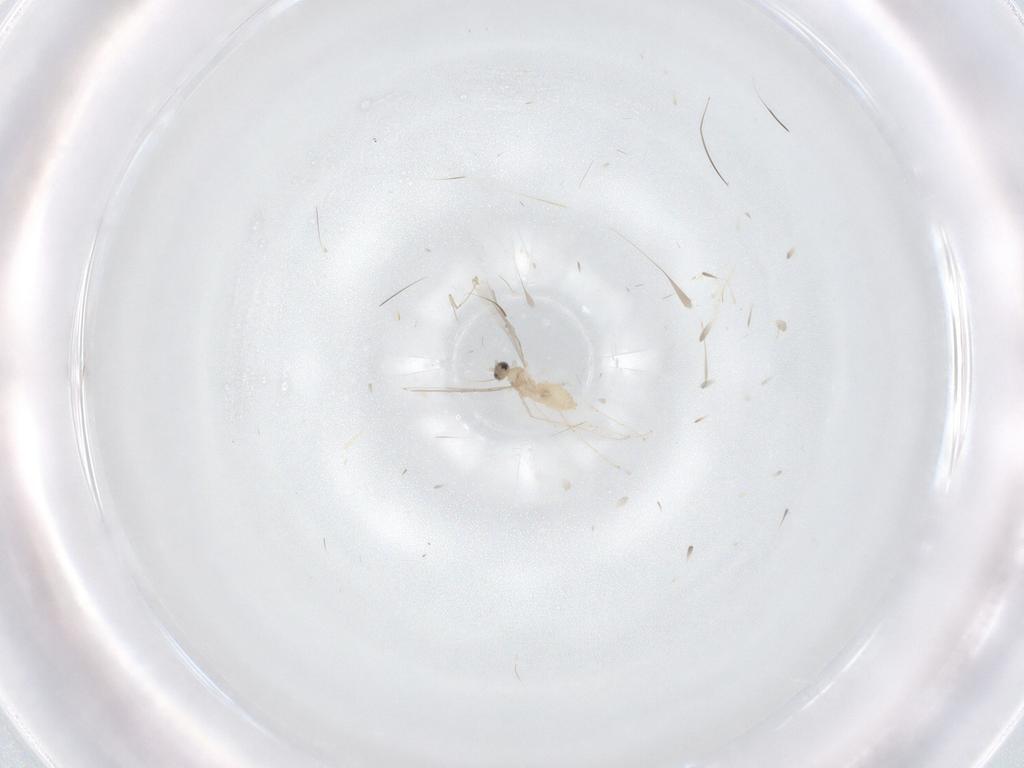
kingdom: Animalia
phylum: Arthropoda
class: Insecta
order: Diptera
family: Cecidomyiidae
